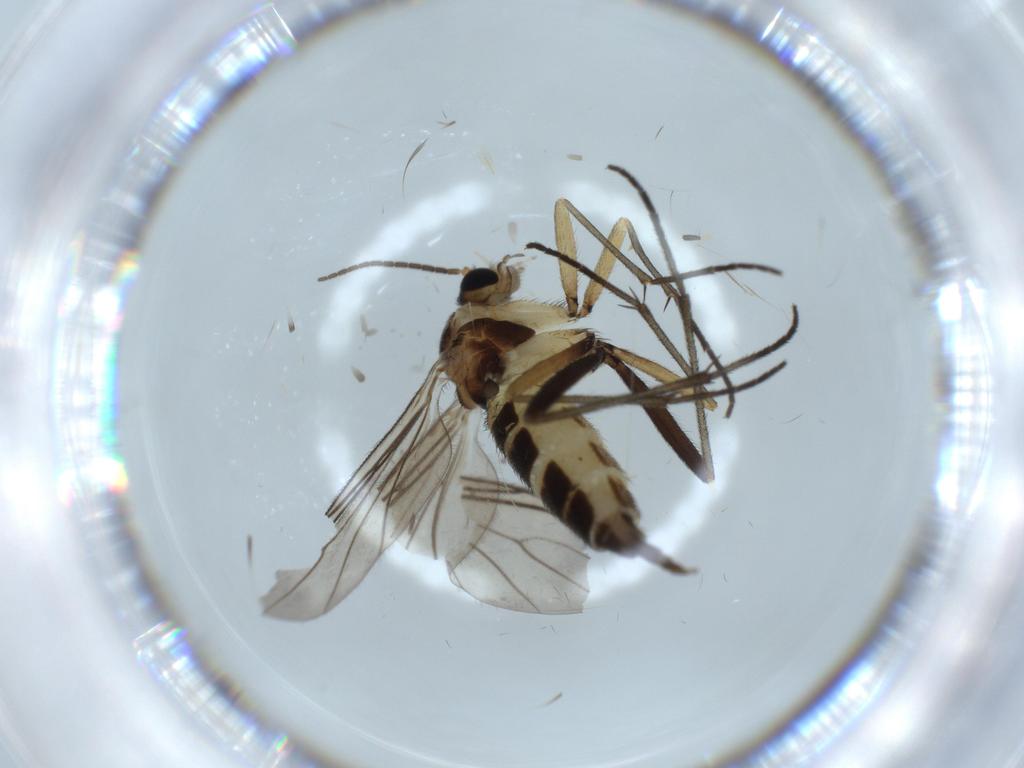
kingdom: Animalia
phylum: Arthropoda
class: Insecta
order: Diptera
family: Sciaridae
